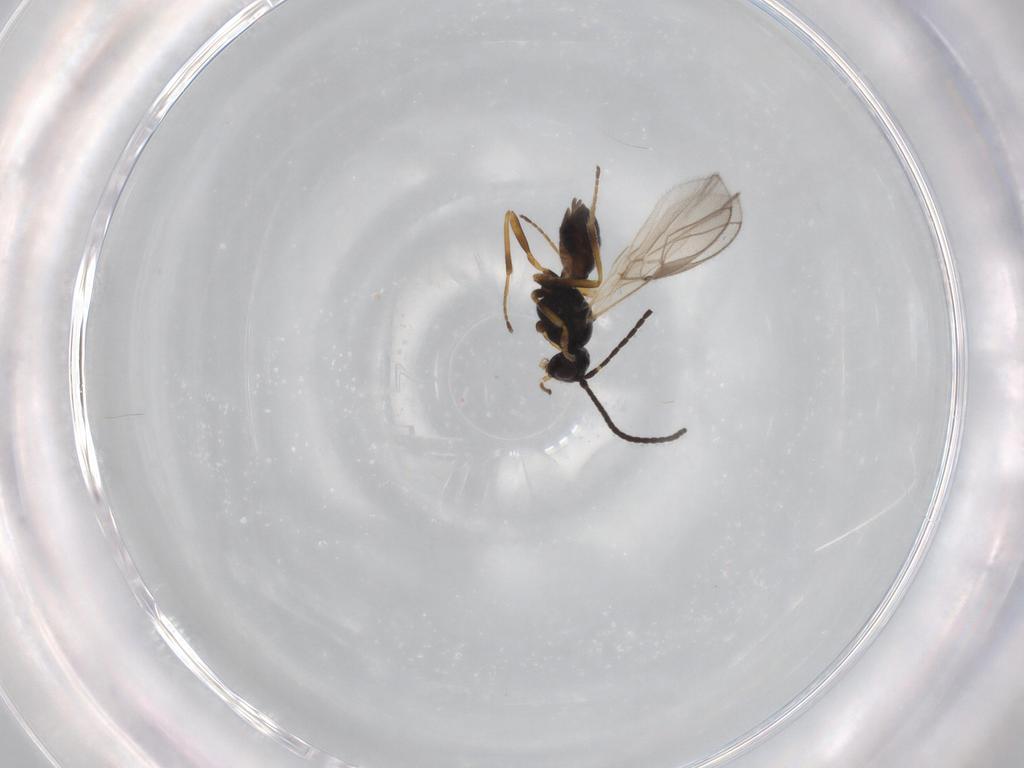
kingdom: Animalia
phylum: Arthropoda
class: Insecta
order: Hymenoptera
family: Braconidae
